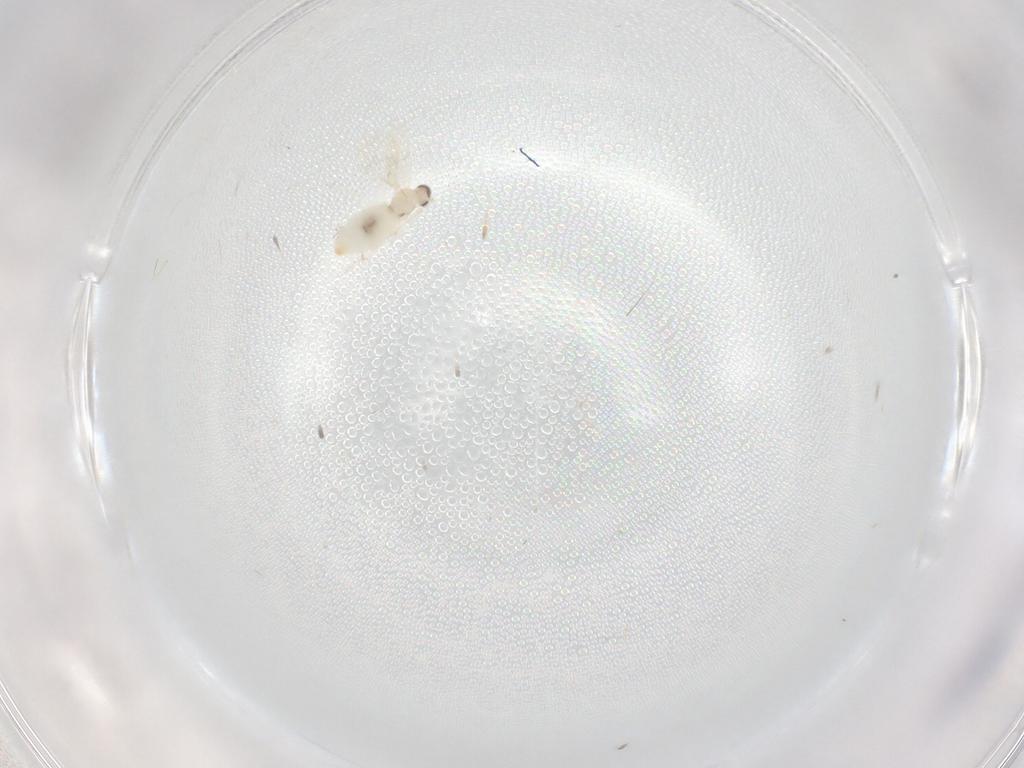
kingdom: Animalia
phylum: Arthropoda
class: Insecta
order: Diptera
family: Cecidomyiidae
